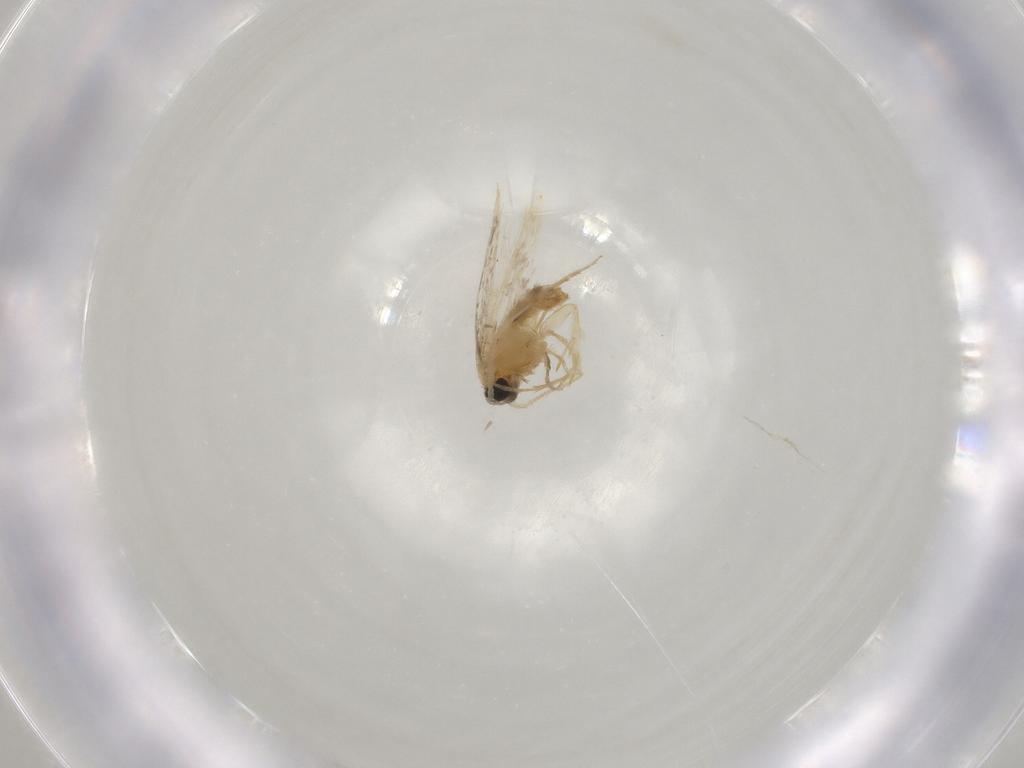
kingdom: Animalia
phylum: Arthropoda
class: Insecta
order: Lepidoptera
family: Nepticulidae
